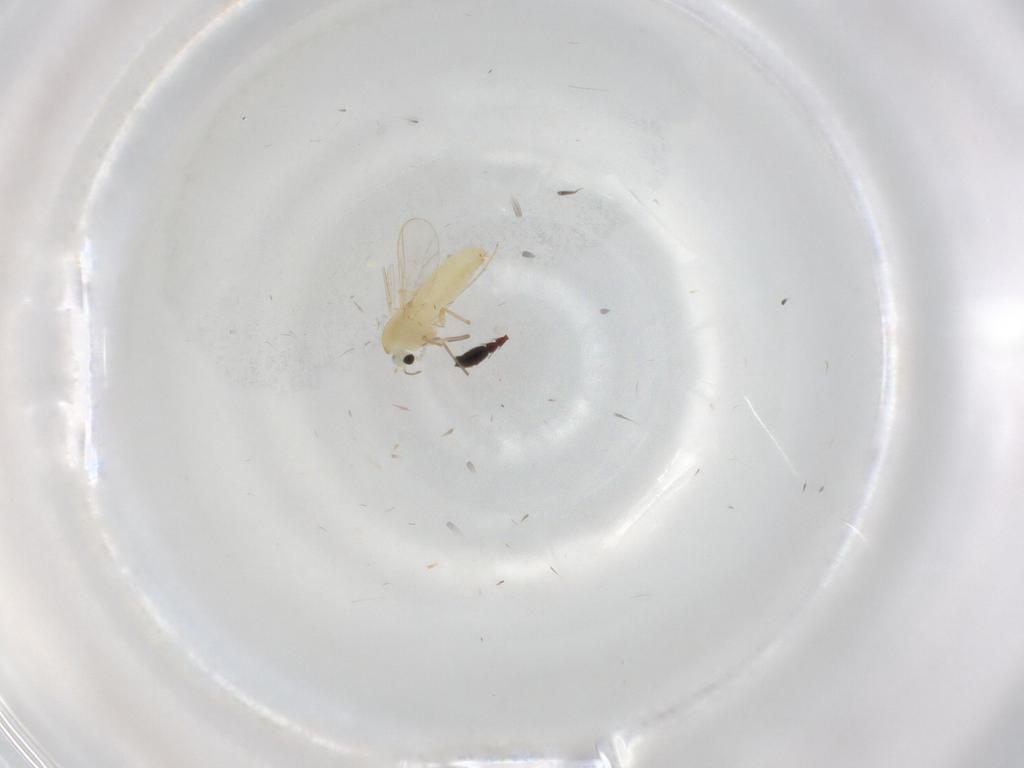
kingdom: Animalia
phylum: Arthropoda
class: Insecta
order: Diptera
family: Chironomidae
